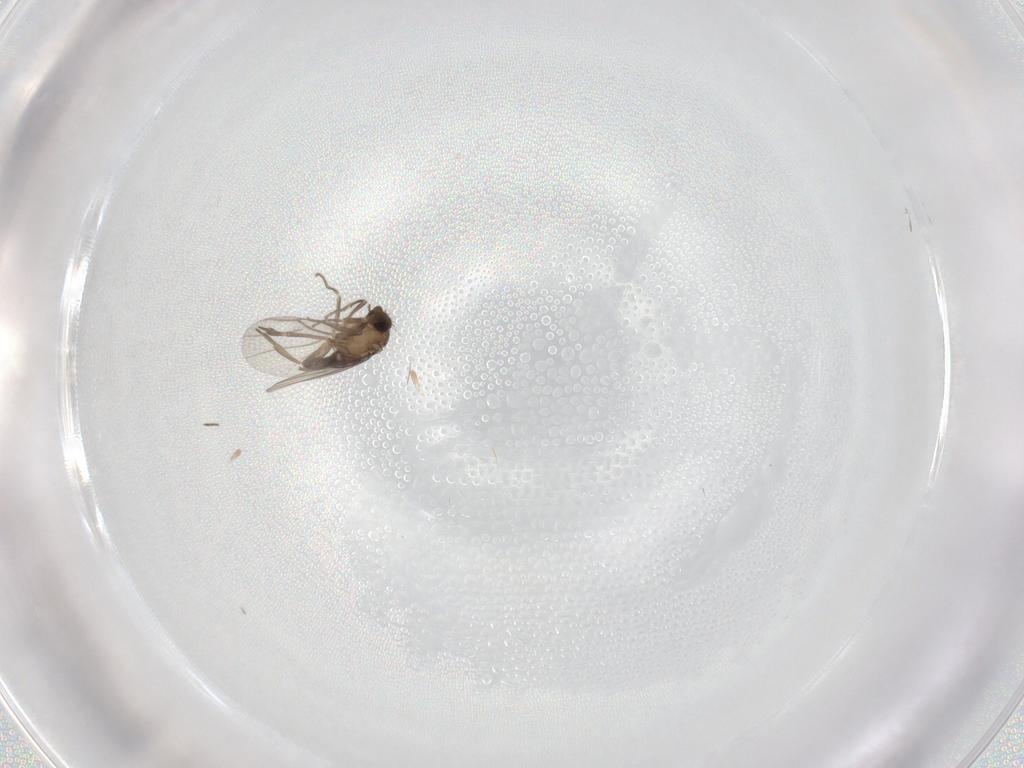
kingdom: Animalia
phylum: Arthropoda
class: Insecta
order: Diptera
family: Phoridae
